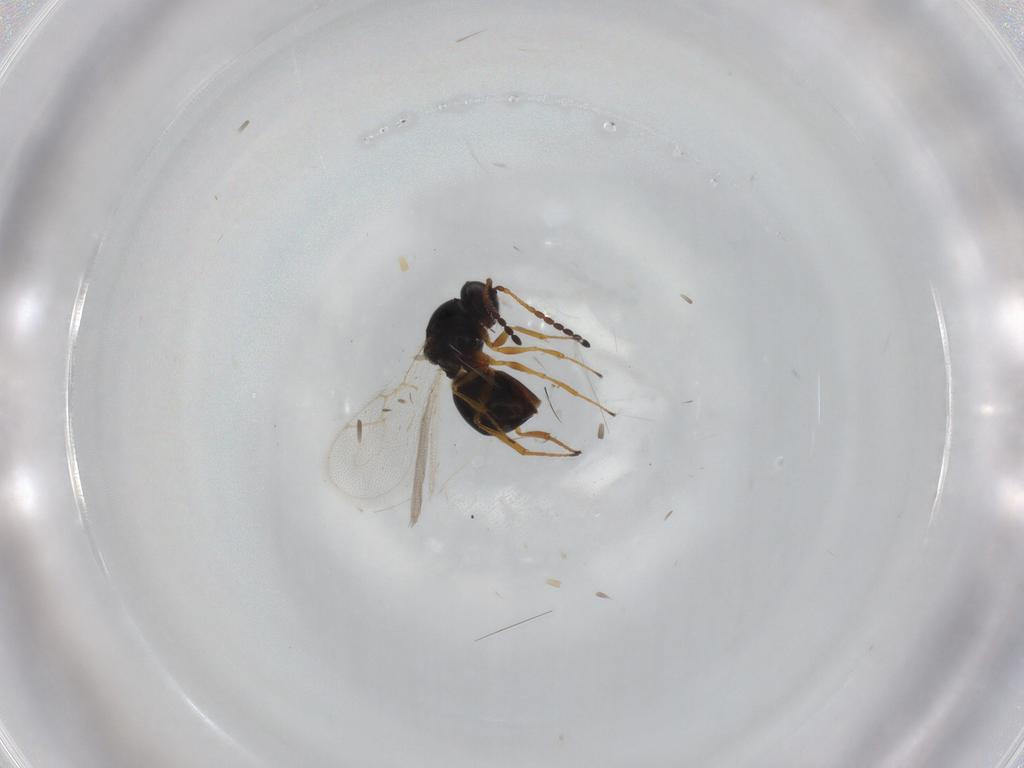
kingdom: Animalia
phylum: Arthropoda
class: Insecta
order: Hymenoptera
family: Figitidae
